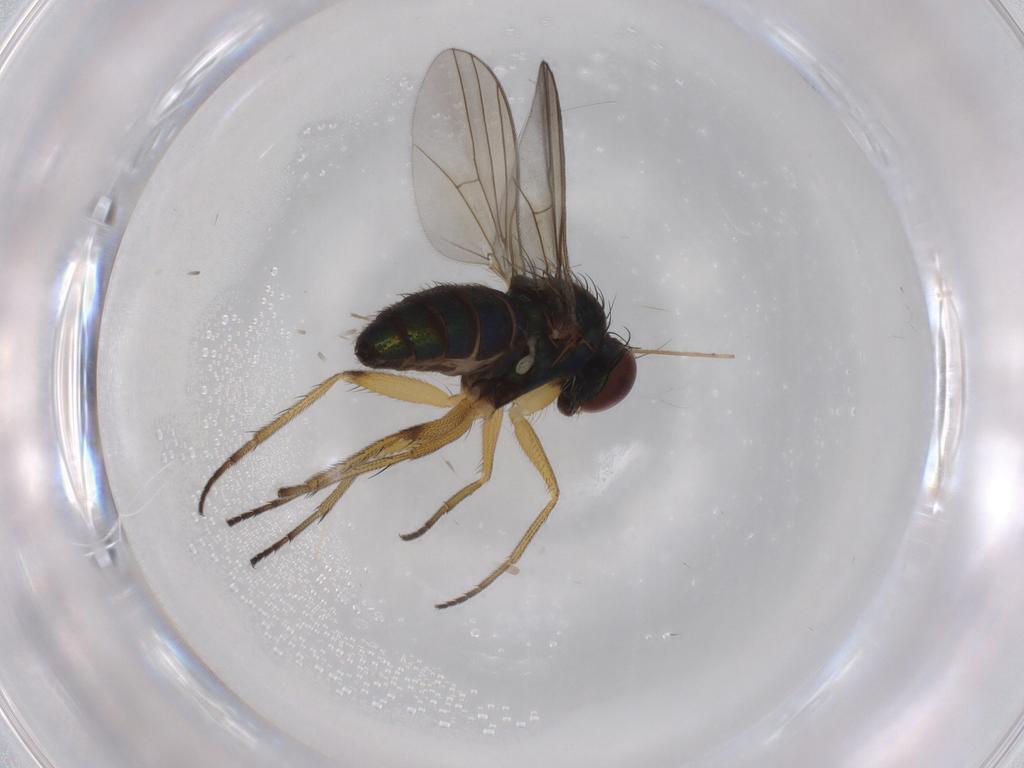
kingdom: Animalia
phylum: Arthropoda
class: Insecta
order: Diptera
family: Dolichopodidae
